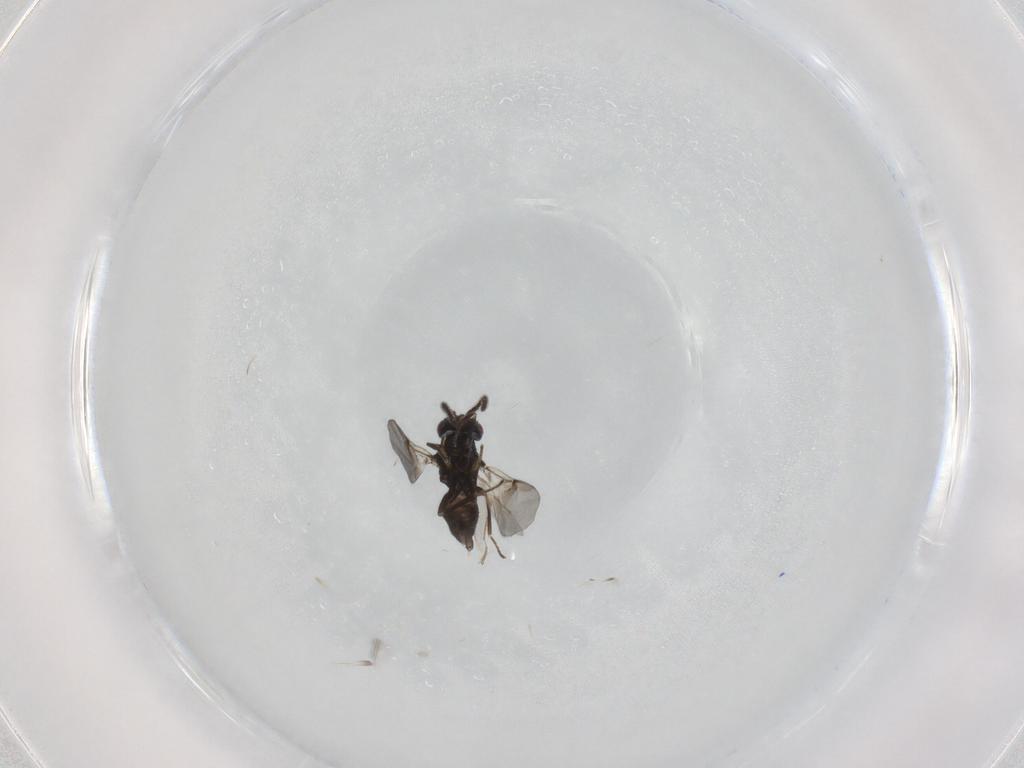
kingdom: Animalia
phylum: Arthropoda
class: Insecta
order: Hymenoptera
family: Encyrtidae
